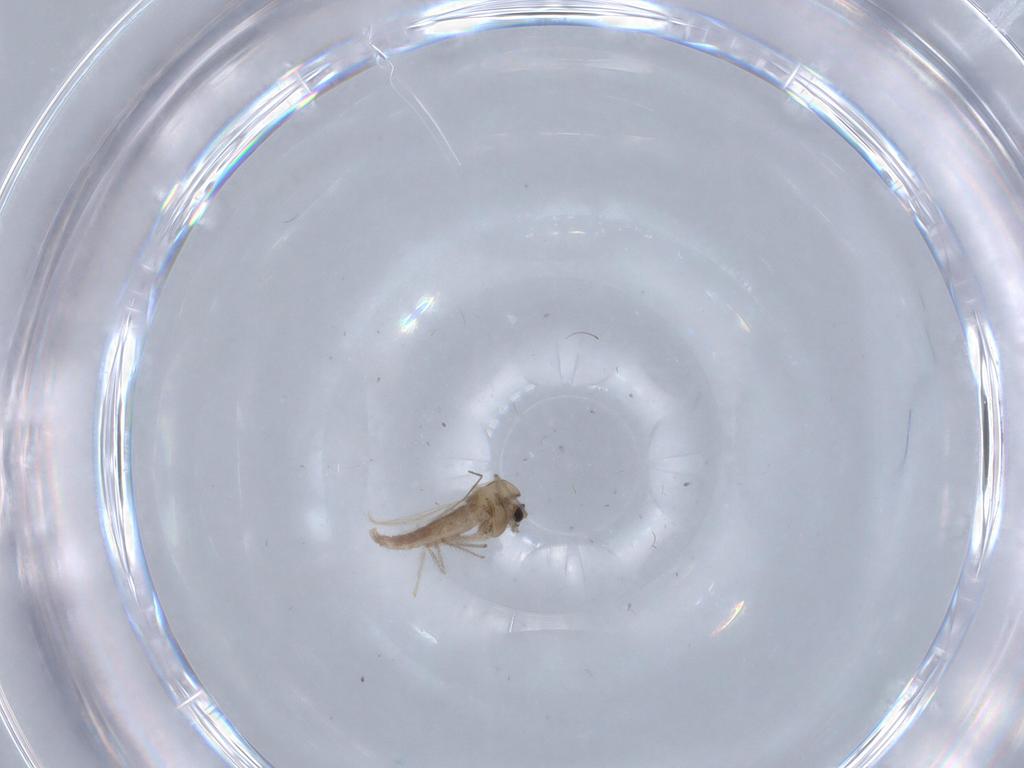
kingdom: Animalia
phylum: Arthropoda
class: Insecta
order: Diptera
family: Chironomidae
